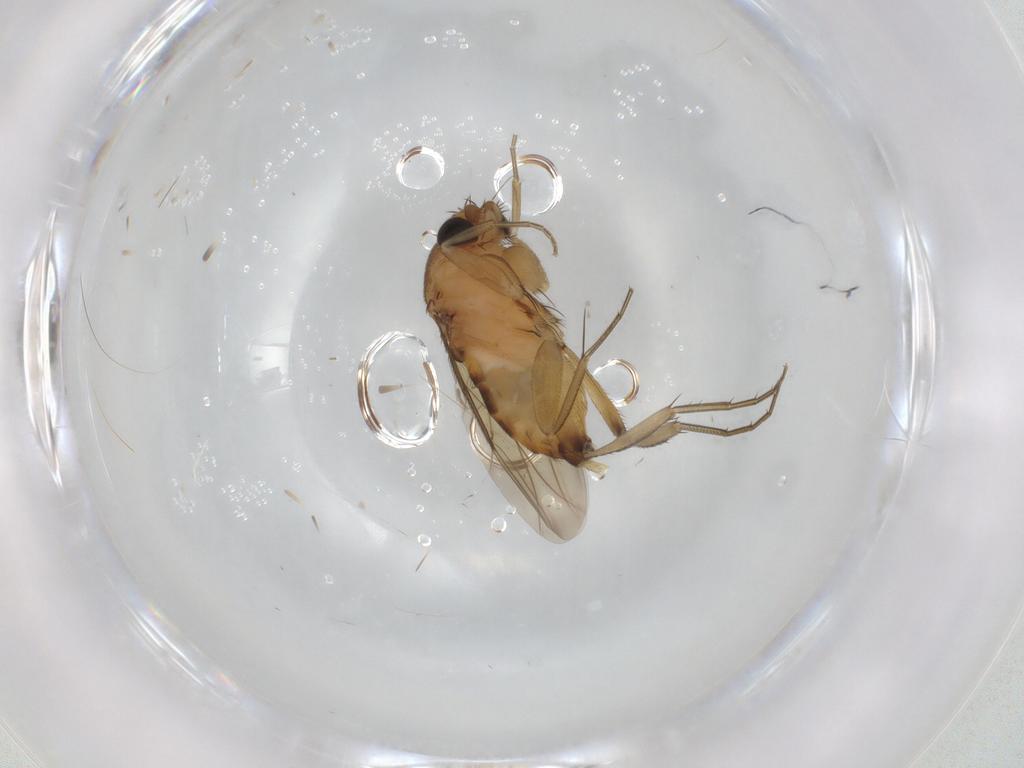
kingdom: Animalia
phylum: Arthropoda
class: Insecta
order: Diptera
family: Phoridae
